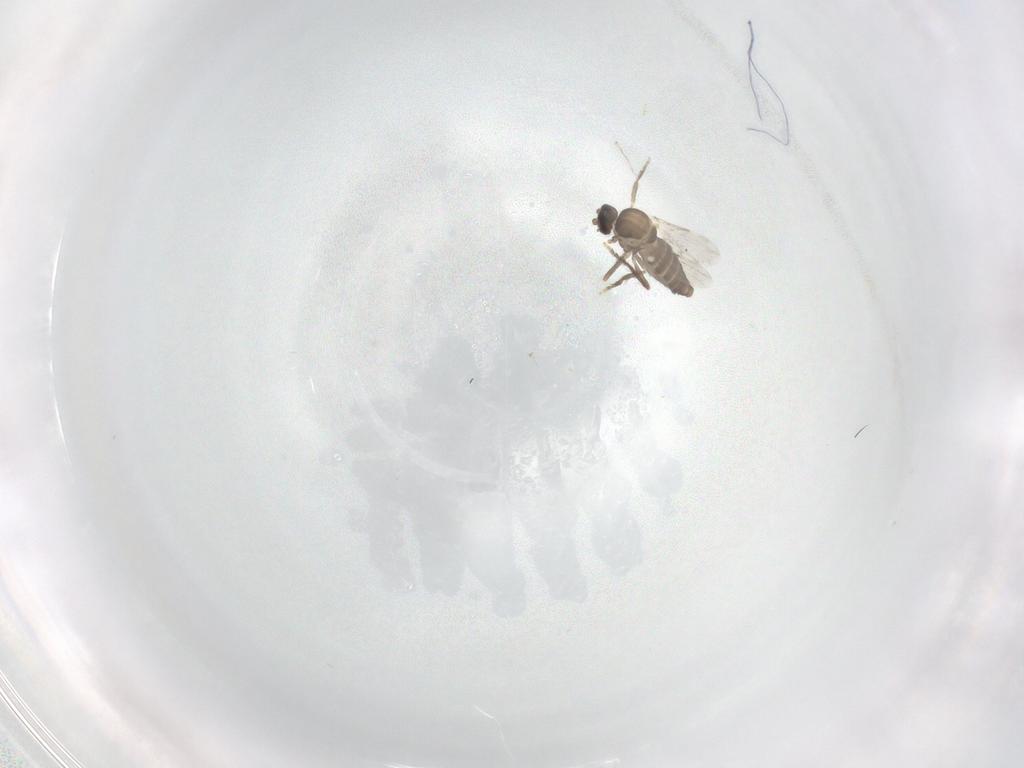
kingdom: Animalia
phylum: Arthropoda
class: Insecta
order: Diptera
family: Ceratopogonidae
